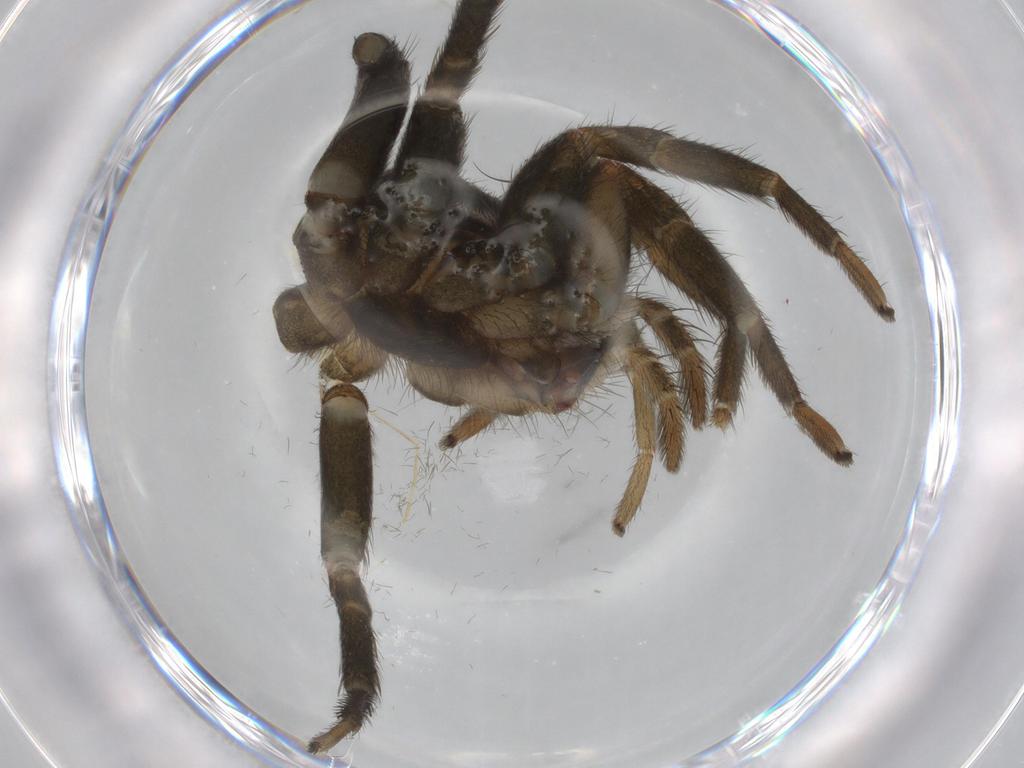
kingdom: Animalia
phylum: Arthropoda
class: Arachnida
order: Araneae
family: Gnaphosidae
